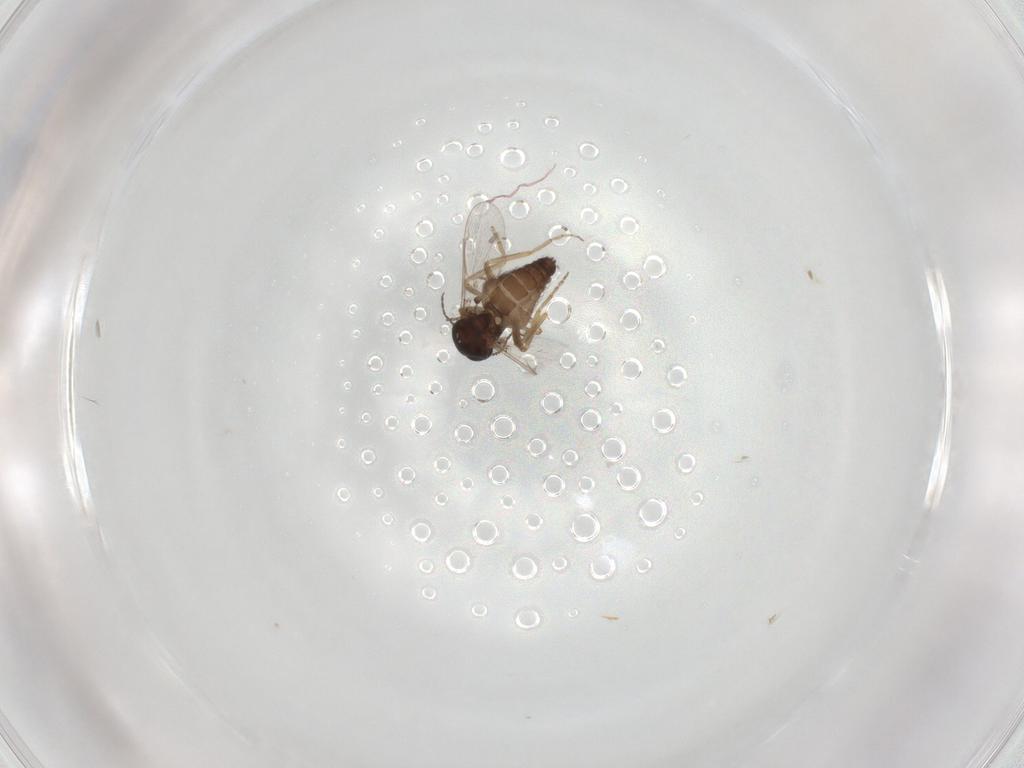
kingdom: Animalia
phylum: Arthropoda
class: Insecta
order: Diptera
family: Ceratopogonidae
